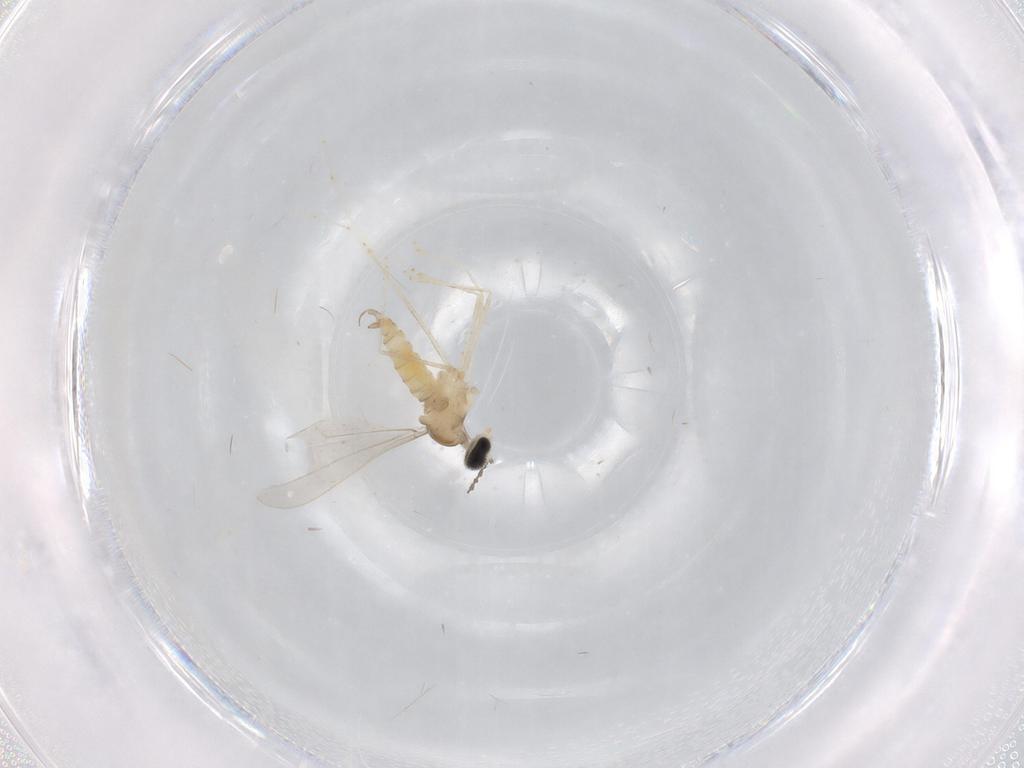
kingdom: Animalia
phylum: Arthropoda
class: Insecta
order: Diptera
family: Cecidomyiidae
